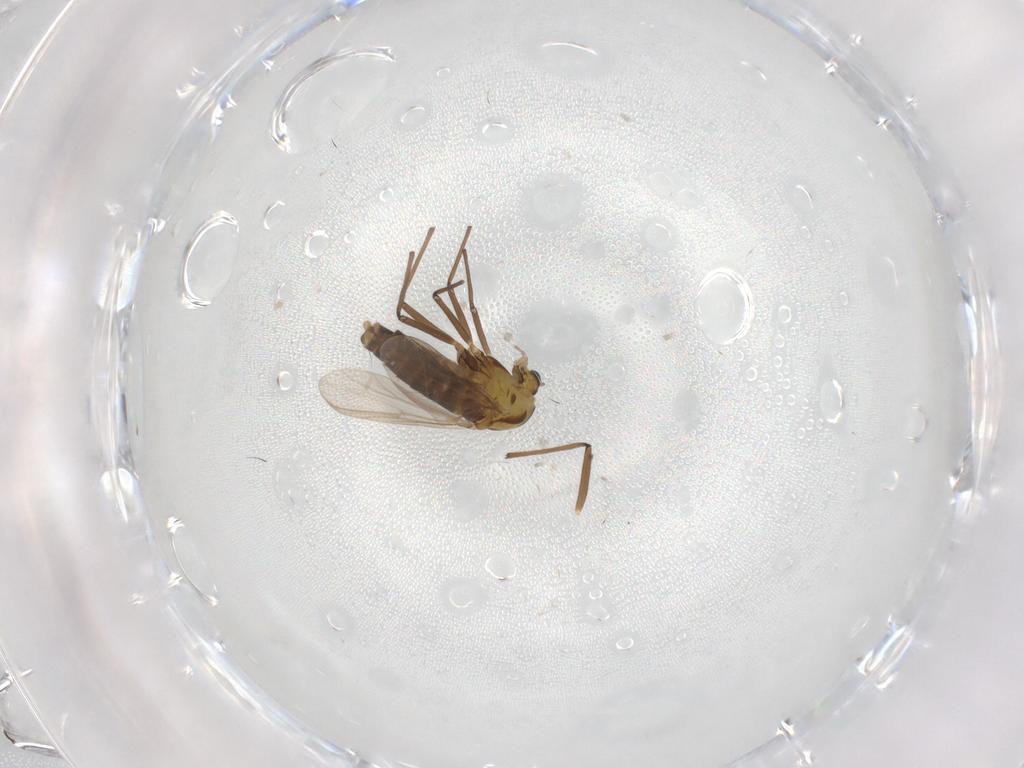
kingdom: Animalia
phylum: Arthropoda
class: Insecta
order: Diptera
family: Chironomidae
